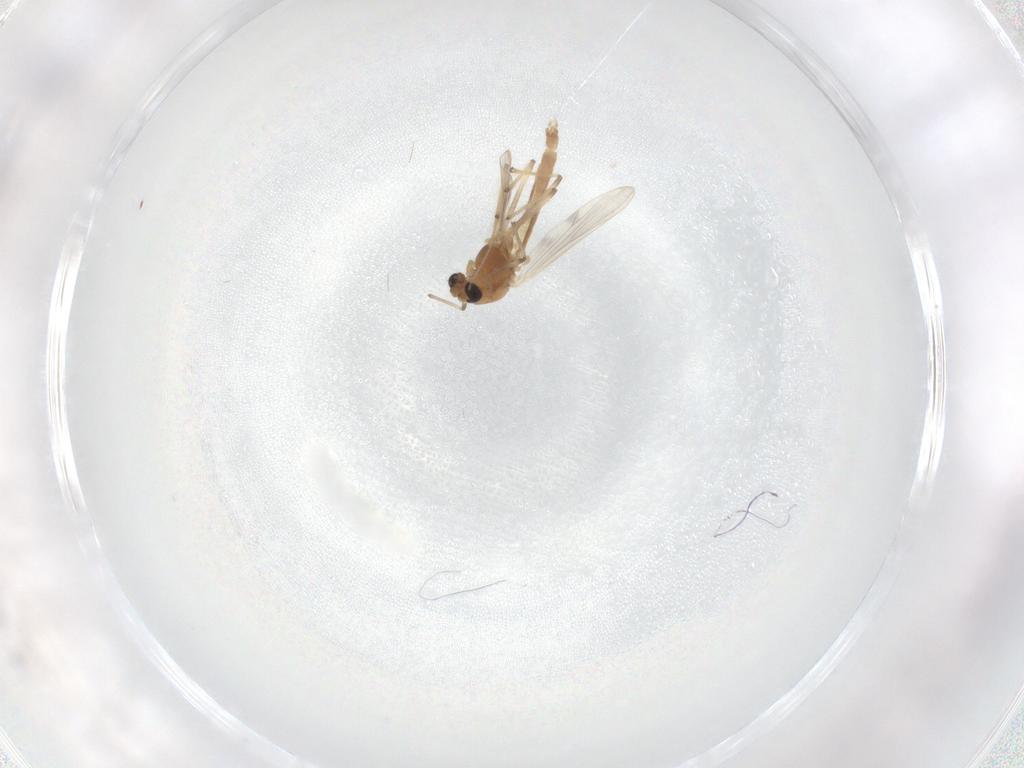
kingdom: Animalia
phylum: Arthropoda
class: Insecta
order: Diptera
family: Chironomidae
